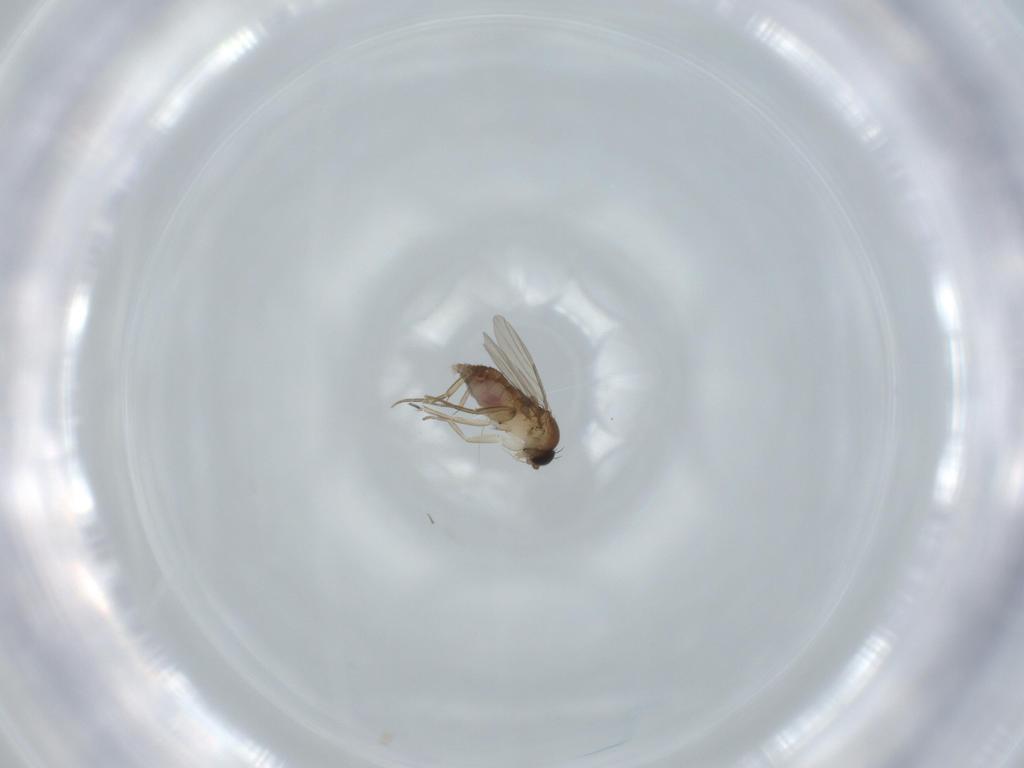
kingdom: Animalia
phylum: Arthropoda
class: Insecta
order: Diptera
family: Phoridae
